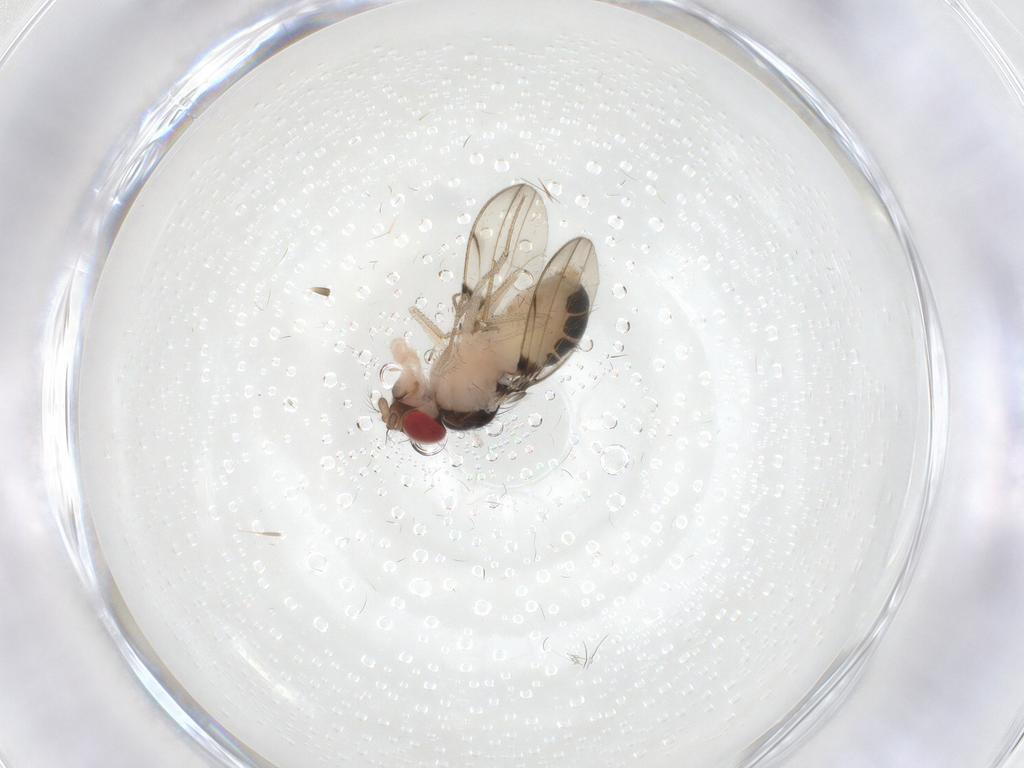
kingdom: Animalia
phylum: Arthropoda
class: Insecta
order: Diptera
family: Drosophilidae
